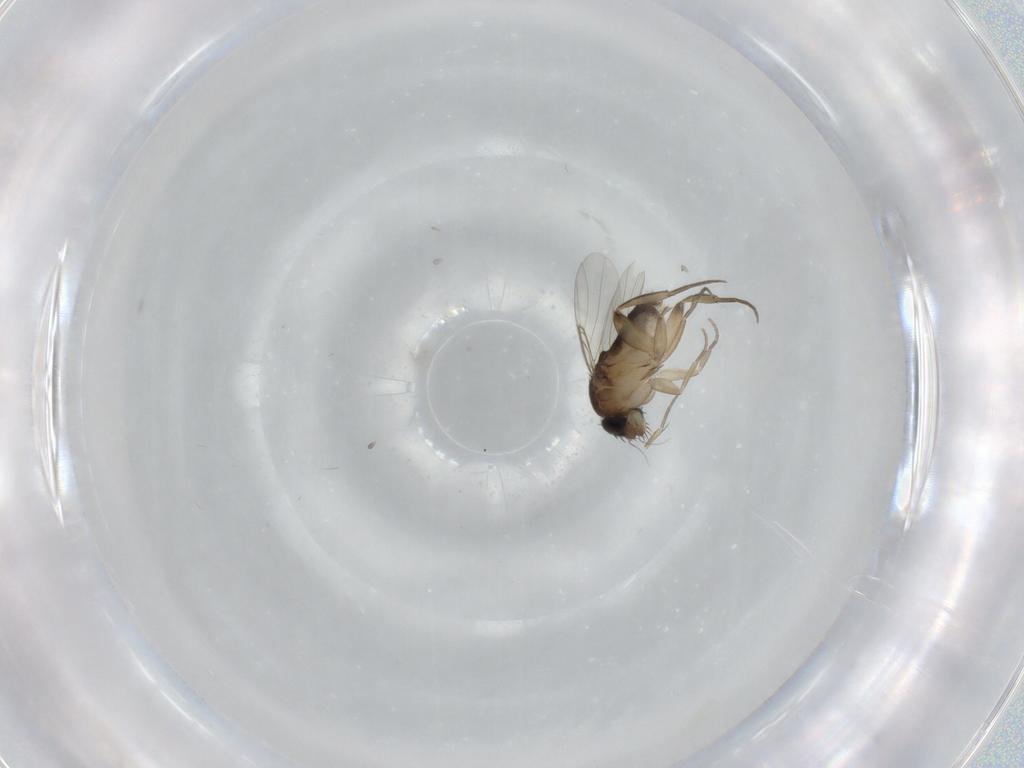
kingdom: Animalia
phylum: Arthropoda
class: Insecta
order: Diptera
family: Phoridae
